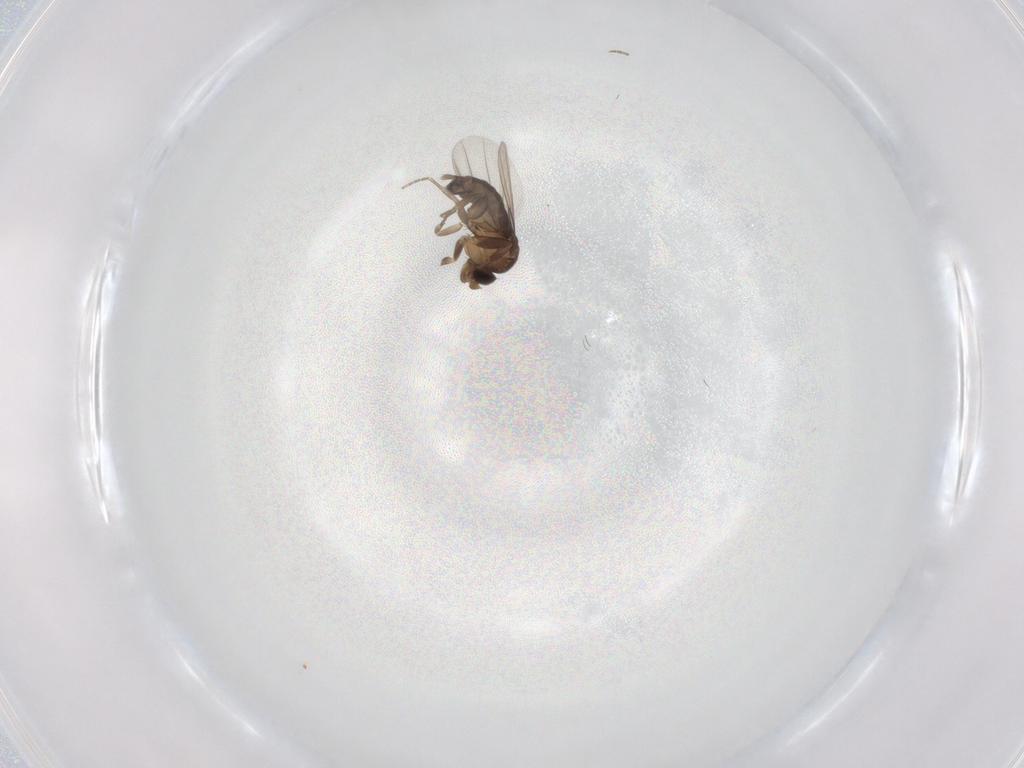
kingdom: Animalia
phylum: Arthropoda
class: Insecta
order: Diptera
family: Phoridae
